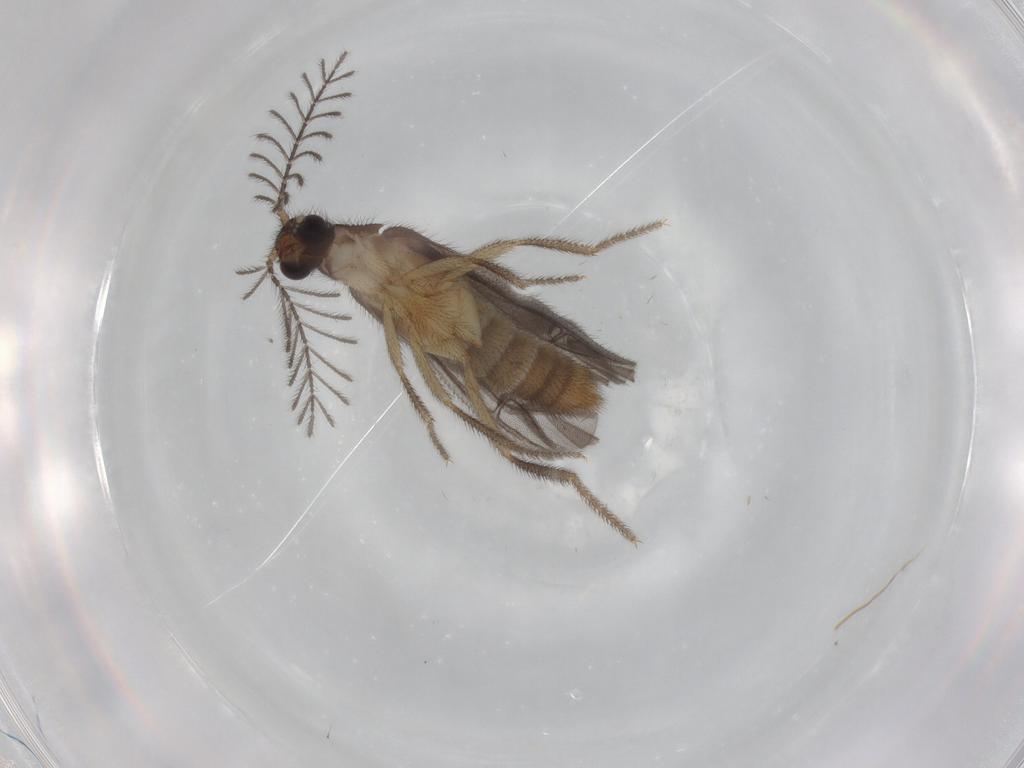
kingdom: Animalia
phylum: Arthropoda
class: Insecta
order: Coleoptera
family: Phengodidae
